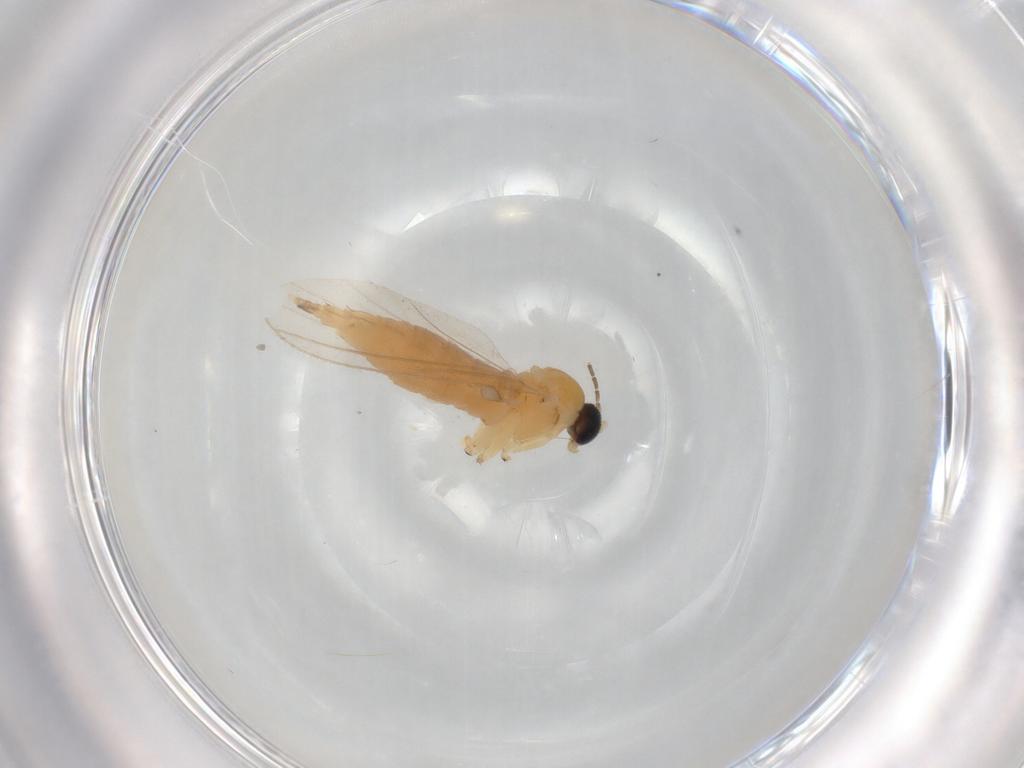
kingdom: Animalia
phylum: Arthropoda
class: Insecta
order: Diptera
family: Sciaridae
